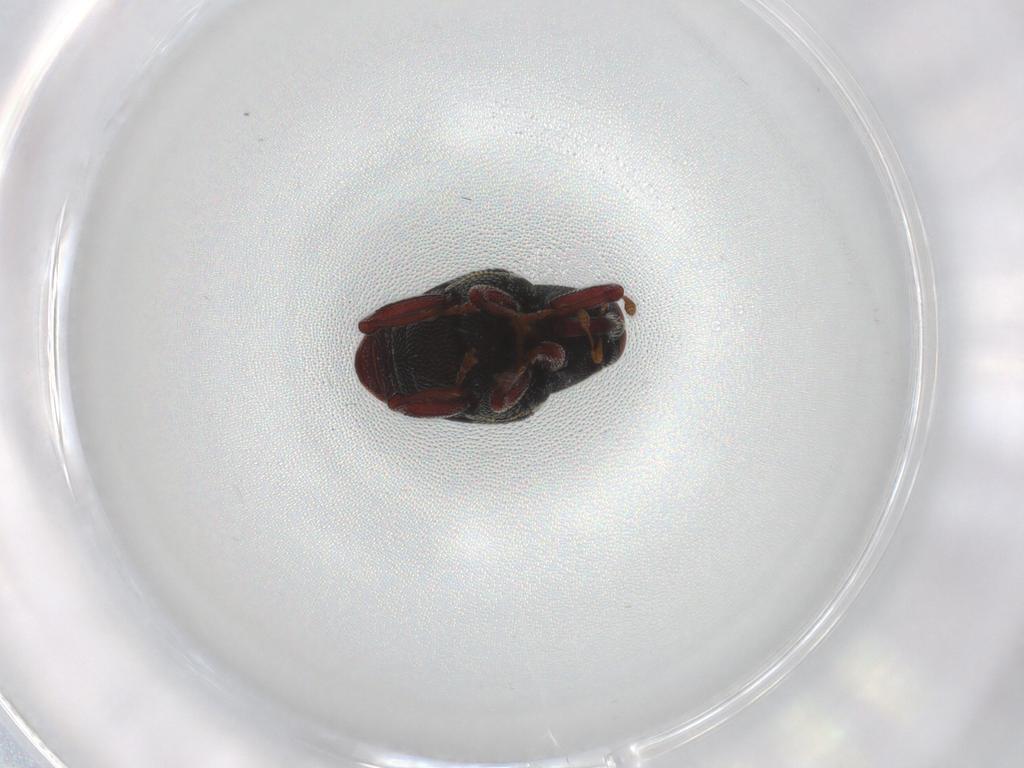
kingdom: Animalia
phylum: Arthropoda
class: Insecta
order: Coleoptera
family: Curculionidae
